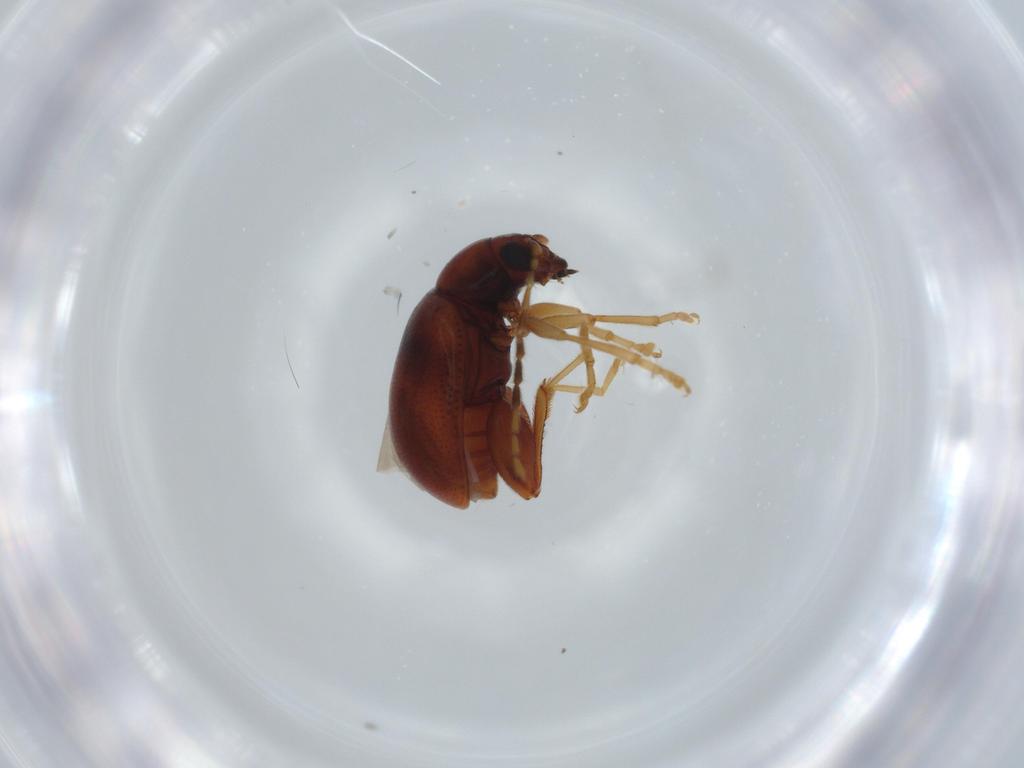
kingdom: Animalia
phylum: Arthropoda
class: Insecta
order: Coleoptera
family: Chrysomelidae
